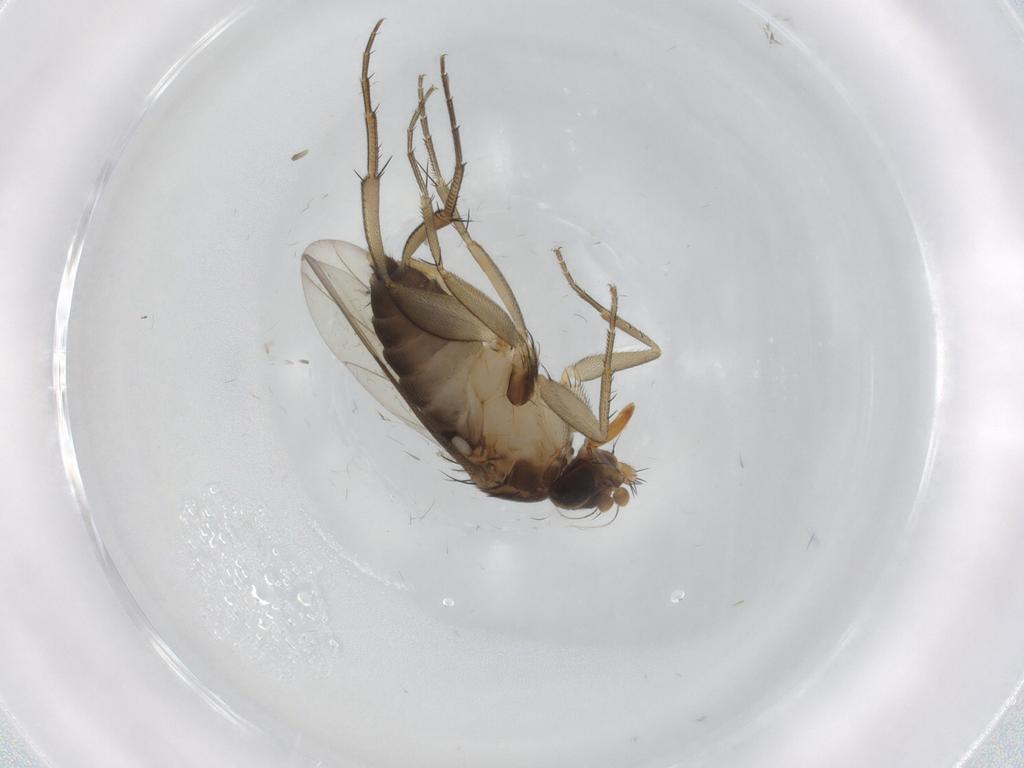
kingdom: Animalia
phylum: Arthropoda
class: Insecta
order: Diptera
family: Phoridae
